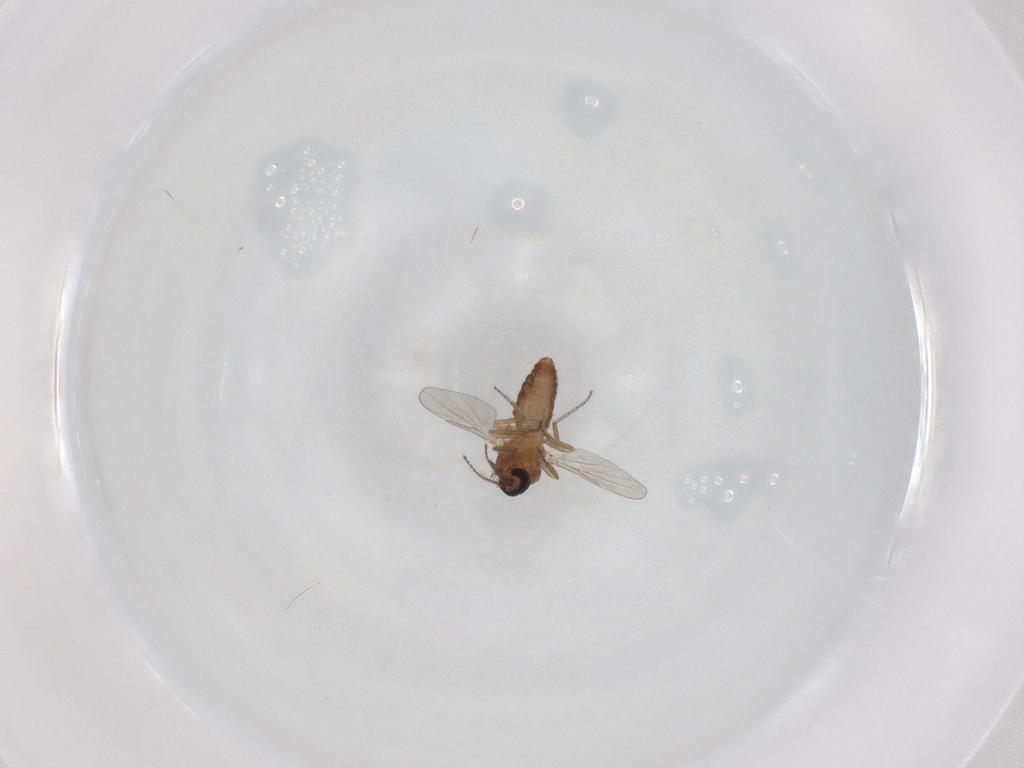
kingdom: Animalia
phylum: Arthropoda
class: Insecta
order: Diptera
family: Ceratopogonidae
